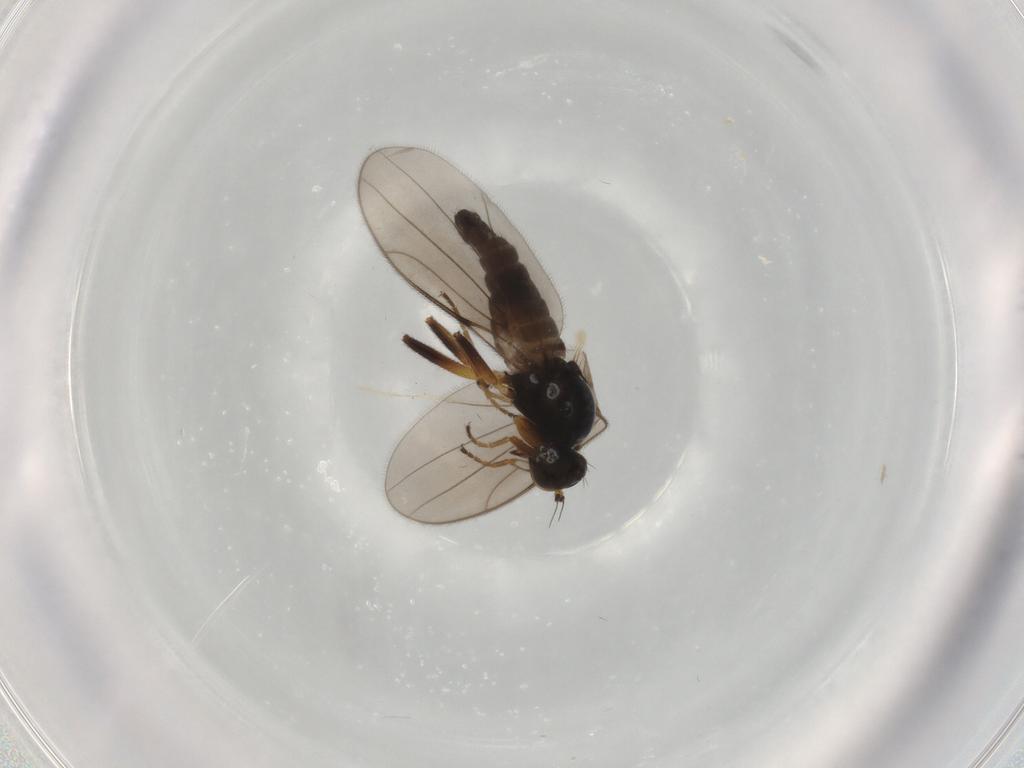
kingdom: Animalia
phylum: Arthropoda
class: Insecta
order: Diptera
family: Hybotidae
